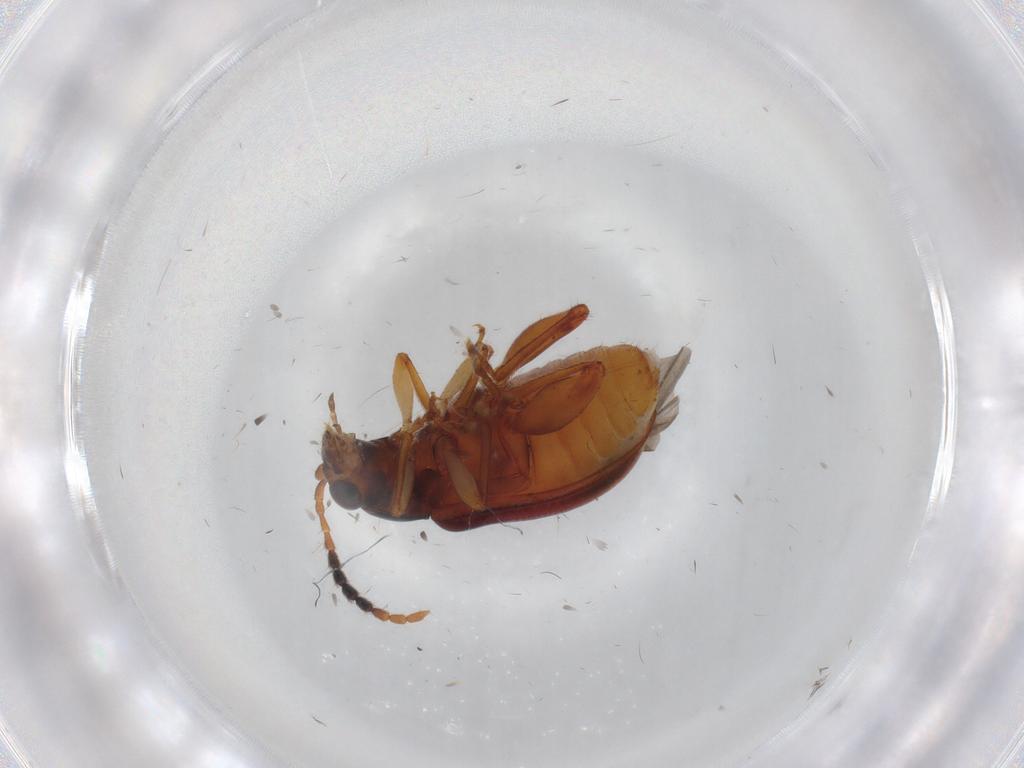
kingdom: Animalia
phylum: Arthropoda
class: Insecta
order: Coleoptera
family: Chrysomelidae
